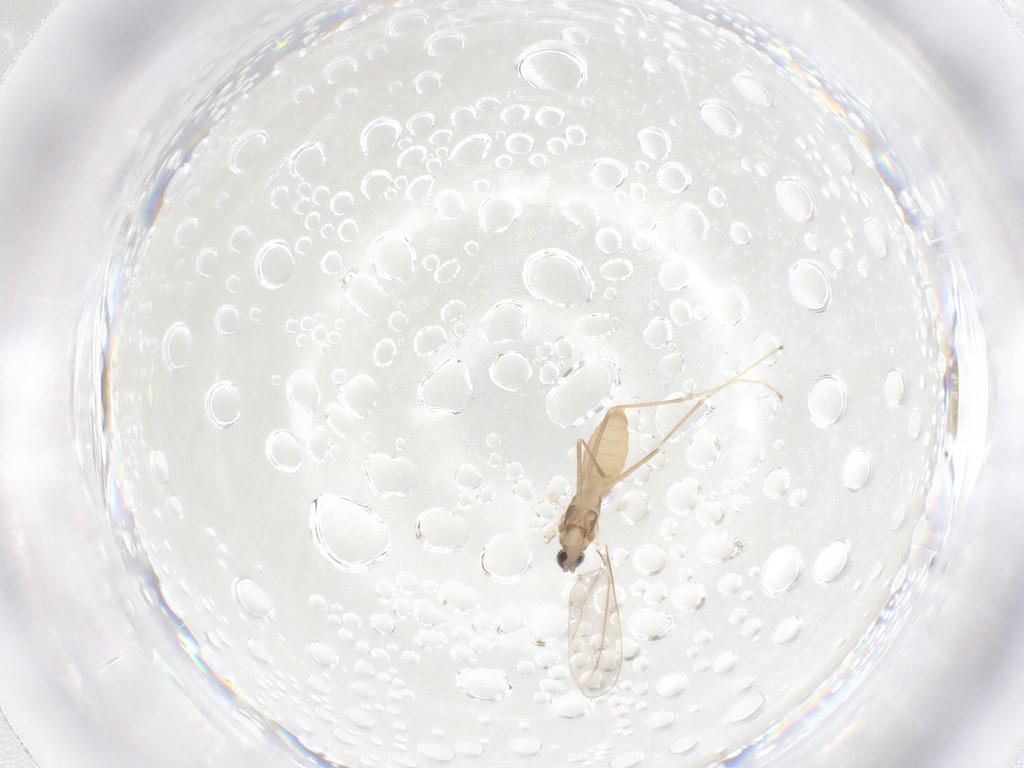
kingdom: Animalia
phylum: Arthropoda
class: Insecta
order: Diptera
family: Cecidomyiidae
